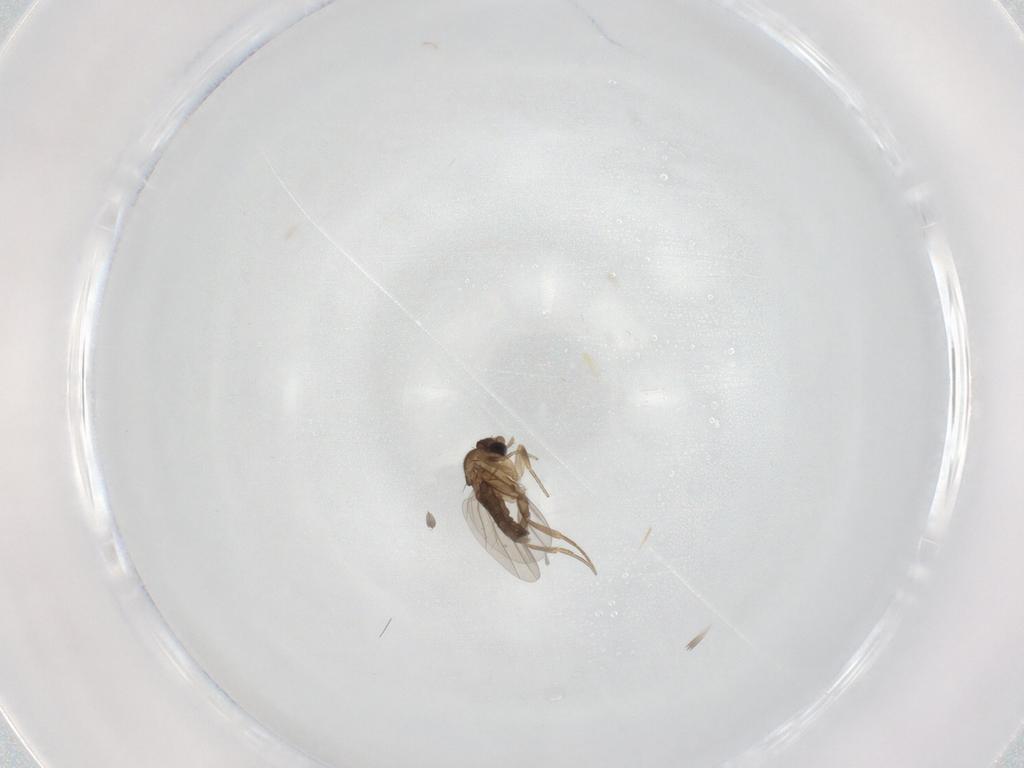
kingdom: Animalia
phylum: Arthropoda
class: Insecta
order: Diptera
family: Phoridae
